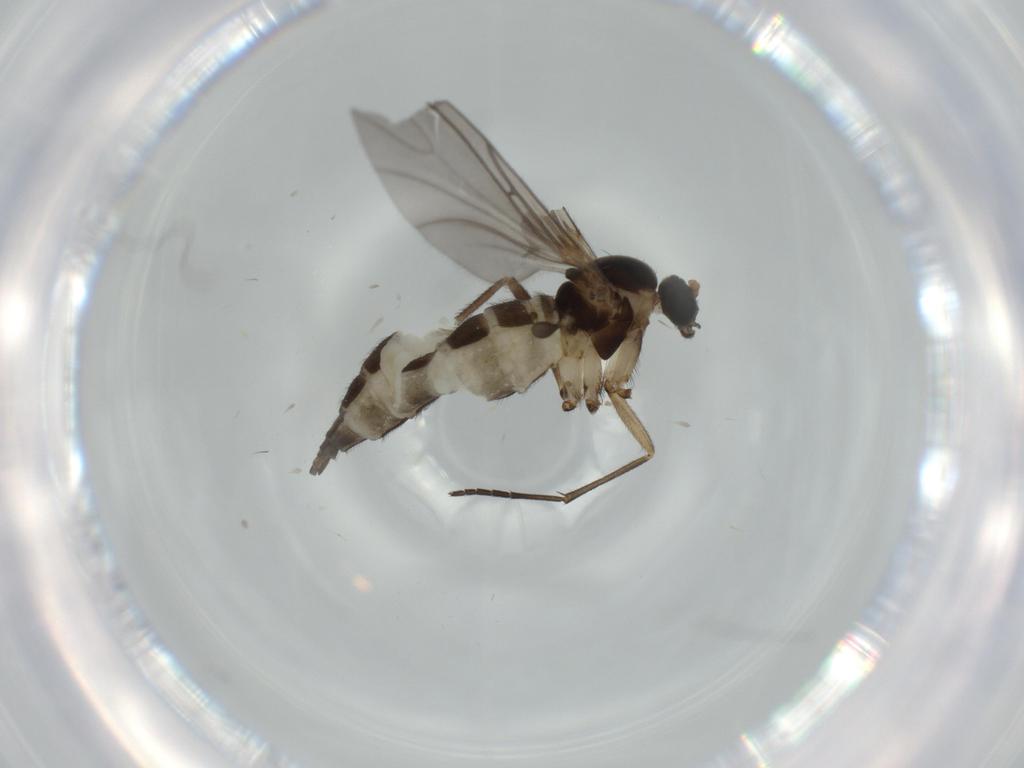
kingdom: Animalia
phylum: Arthropoda
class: Insecta
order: Diptera
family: Sciaridae
